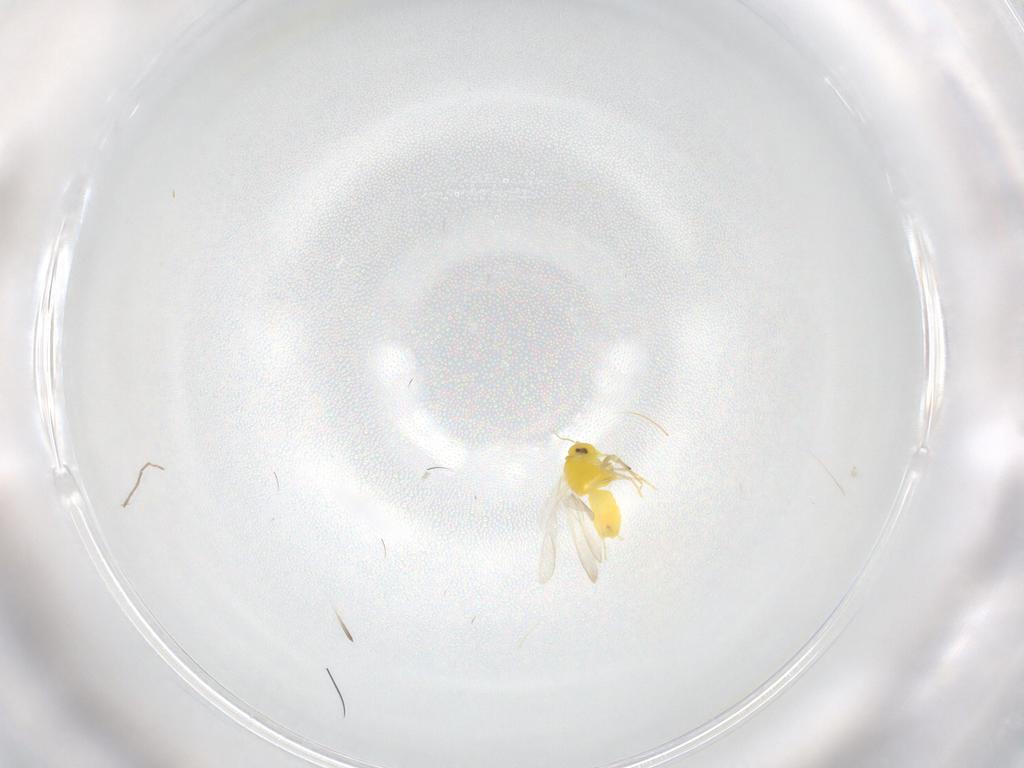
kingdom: Animalia
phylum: Arthropoda
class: Insecta
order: Hemiptera
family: Aleyrodidae
